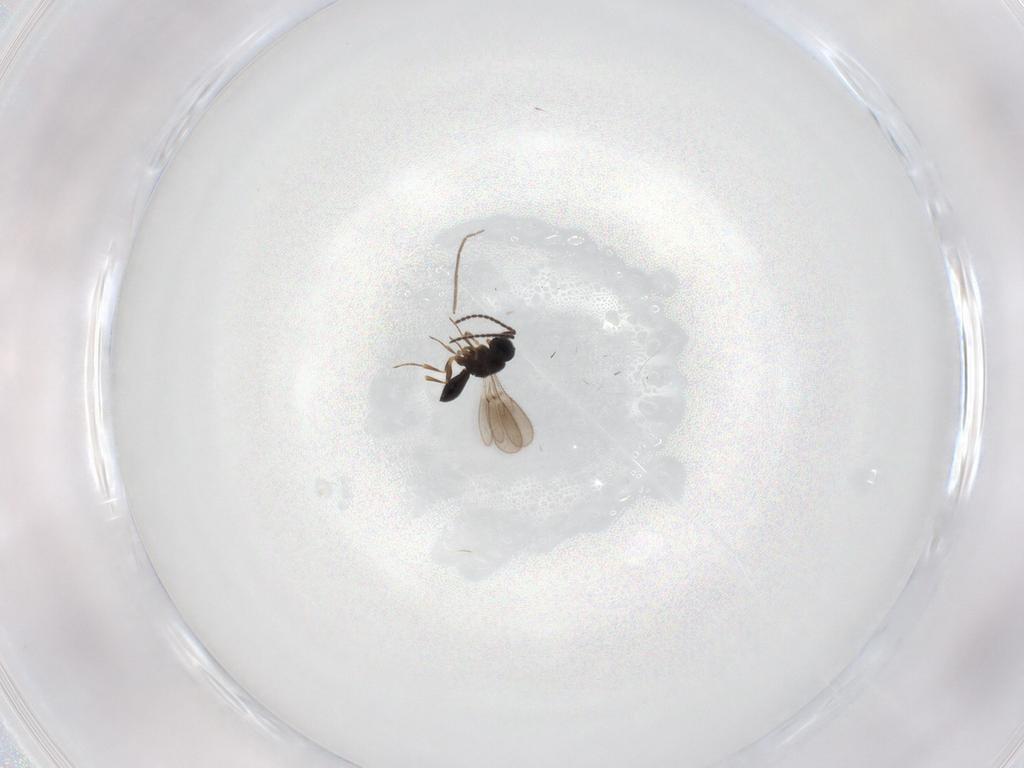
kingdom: Animalia
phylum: Arthropoda
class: Insecta
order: Hymenoptera
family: Scelionidae
